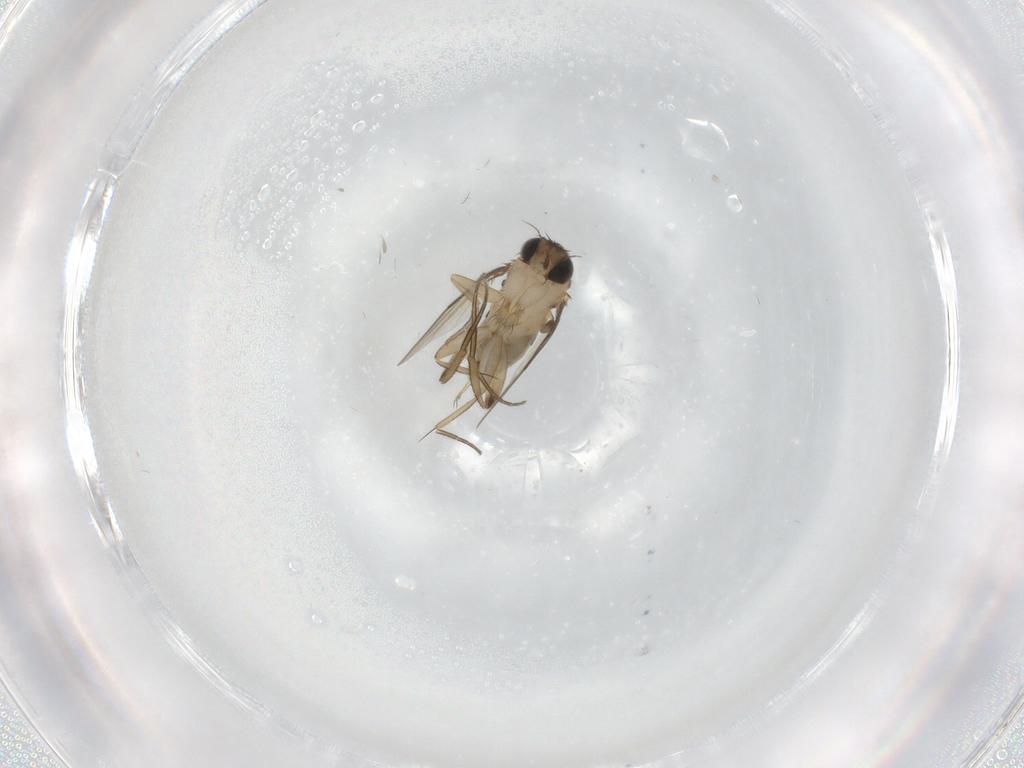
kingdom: Animalia
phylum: Arthropoda
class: Insecta
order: Diptera
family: Phoridae
